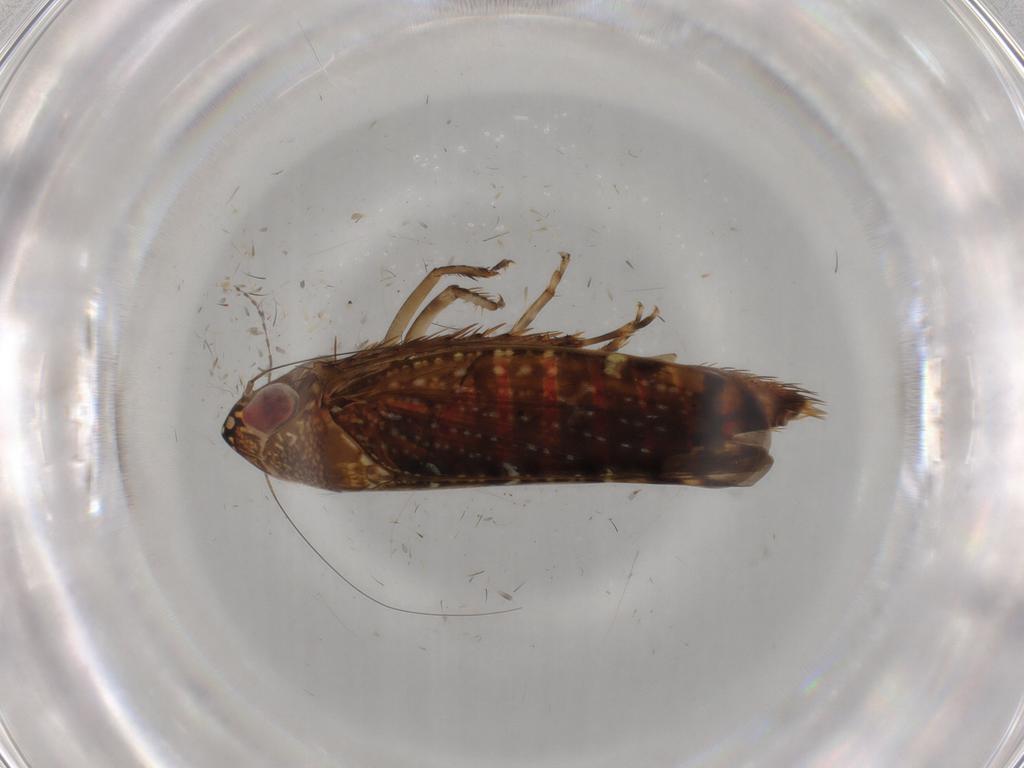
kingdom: Animalia
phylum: Arthropoda
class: Insecta
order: Hemiptera
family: Cicadellidae
